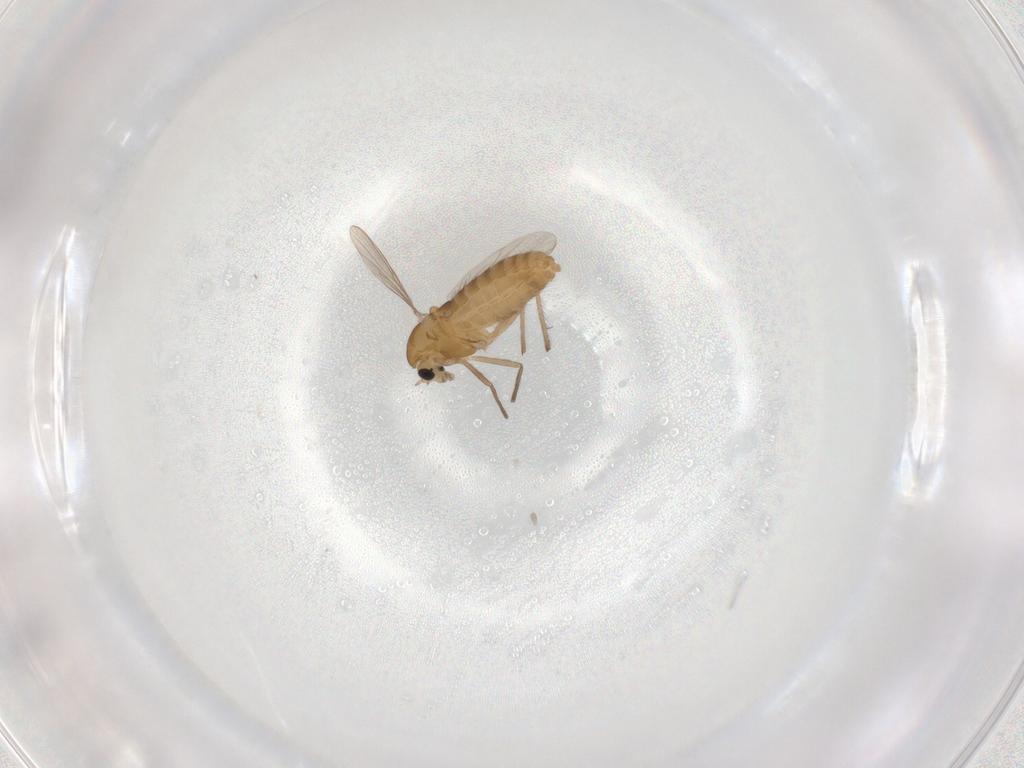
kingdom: Animalia
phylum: Arthropoda
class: Insecta
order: Diptera
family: Chironomidae
